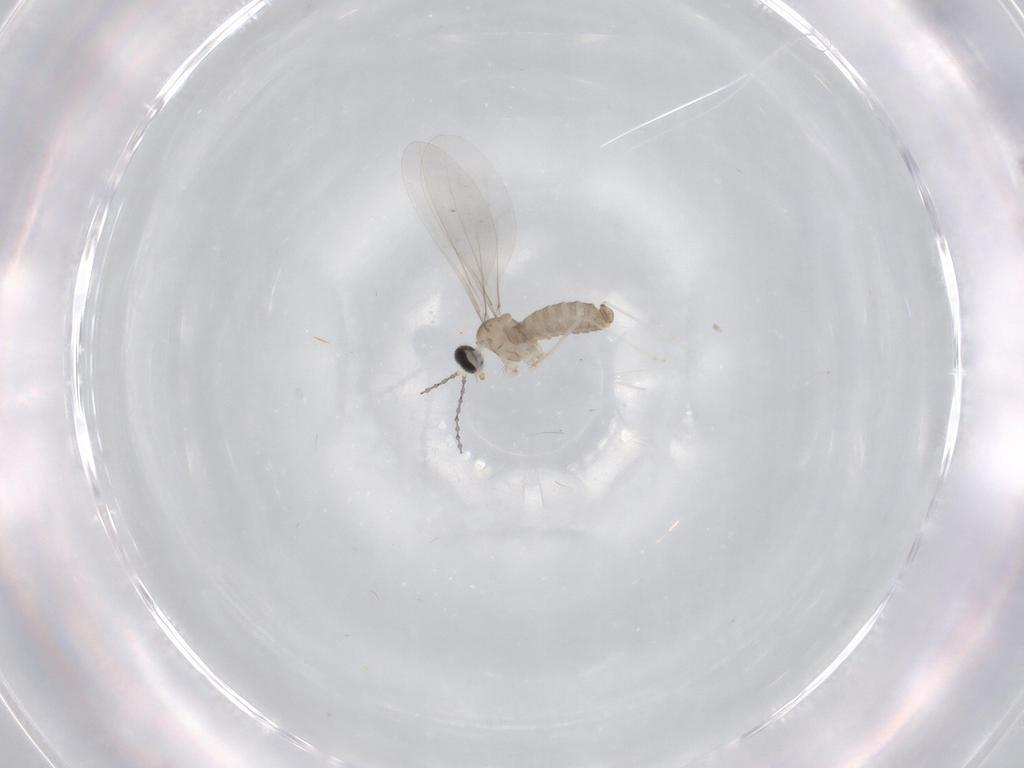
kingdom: Animalia
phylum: Arthropoda
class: Insecta
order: Diptera
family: Cecidomyiidae
